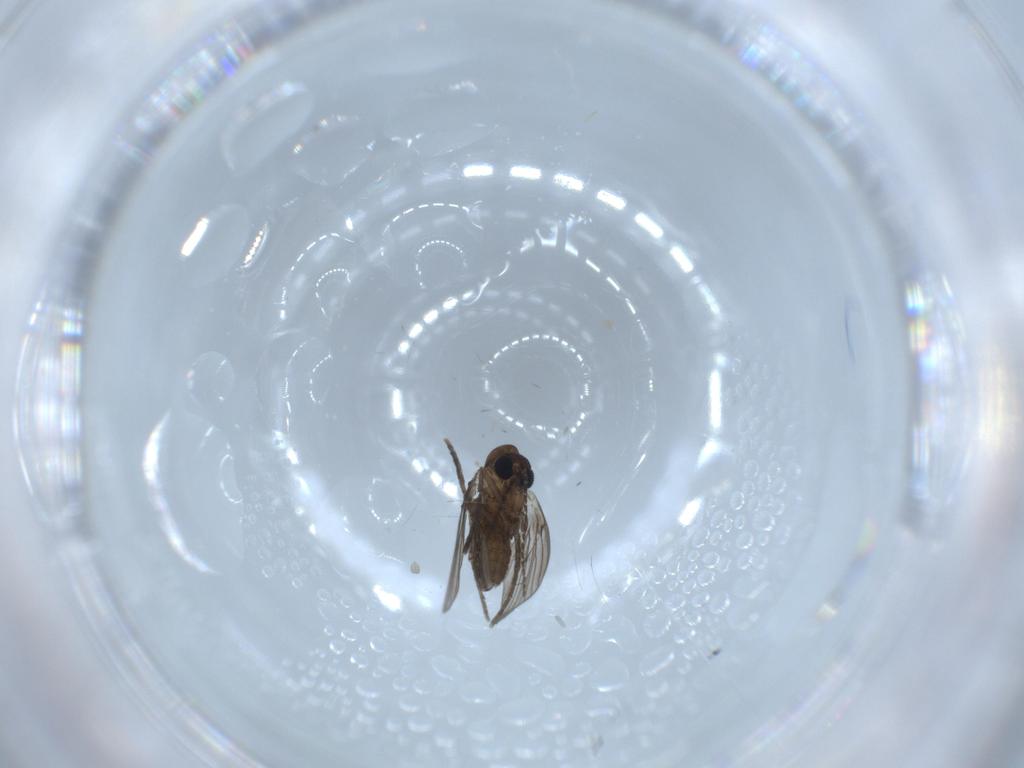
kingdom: Animalia
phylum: Arthropoda
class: Insecta
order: Diptera
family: Psychodidae
